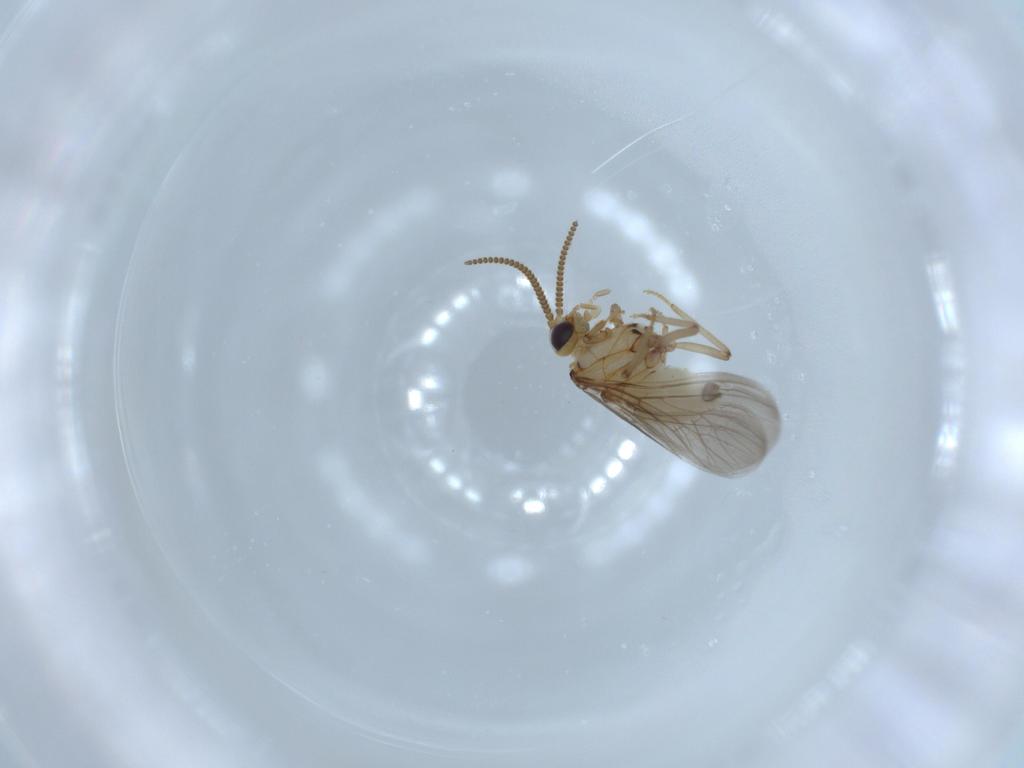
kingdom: Animalia
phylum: Arthropoda
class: Insecta
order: Neuroptera
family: Coniopterygidae
